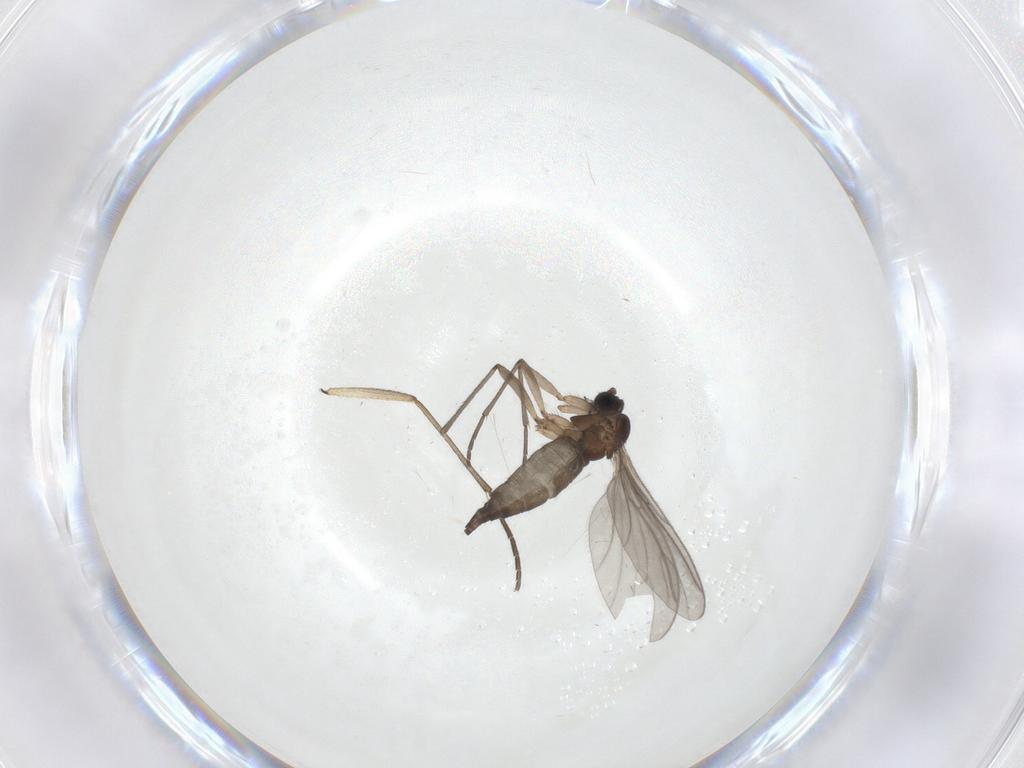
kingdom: Animalia
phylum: Arthropoda
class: Insecta
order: Diptera
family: Sciaridae
